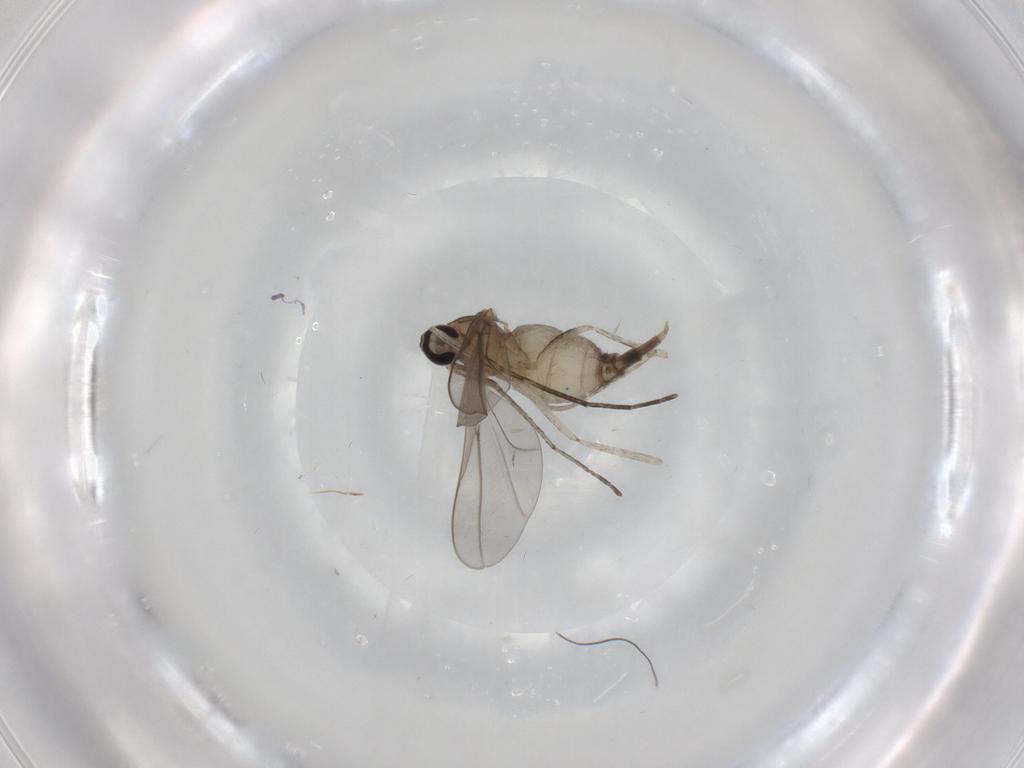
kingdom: Animalia
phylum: Arthropoda
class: Insecta
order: Diptera
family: Cecidomyiidae
